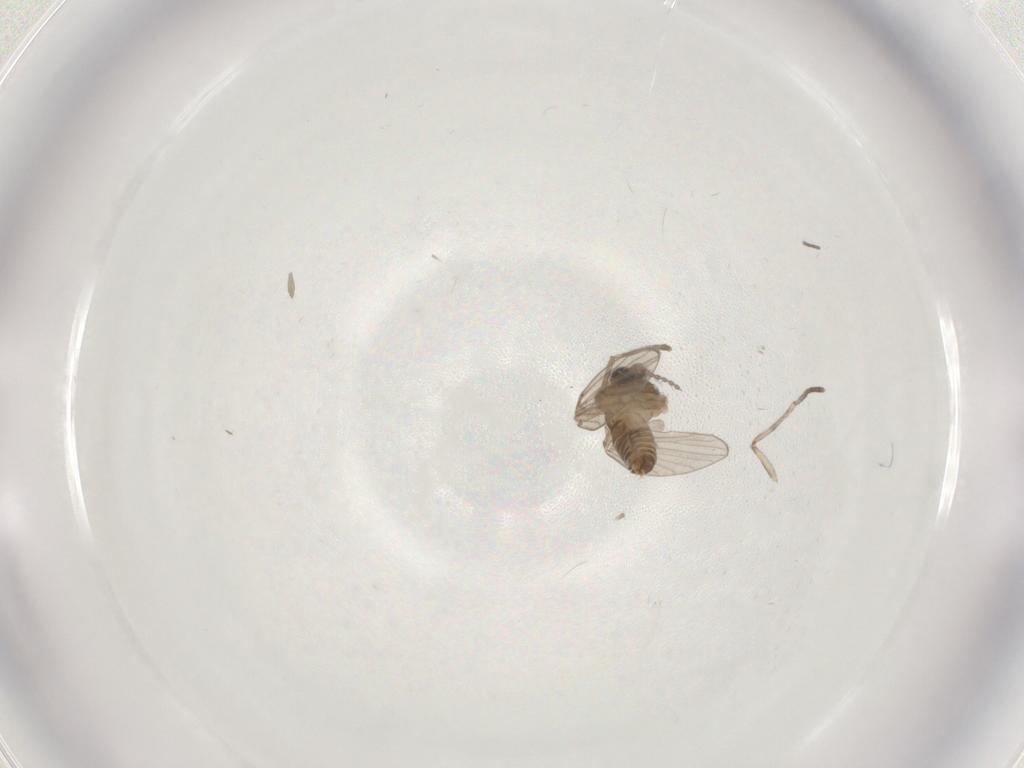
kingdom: Animalia
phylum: Arthropoda
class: Insecta
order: Diptera
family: Psychodidae
